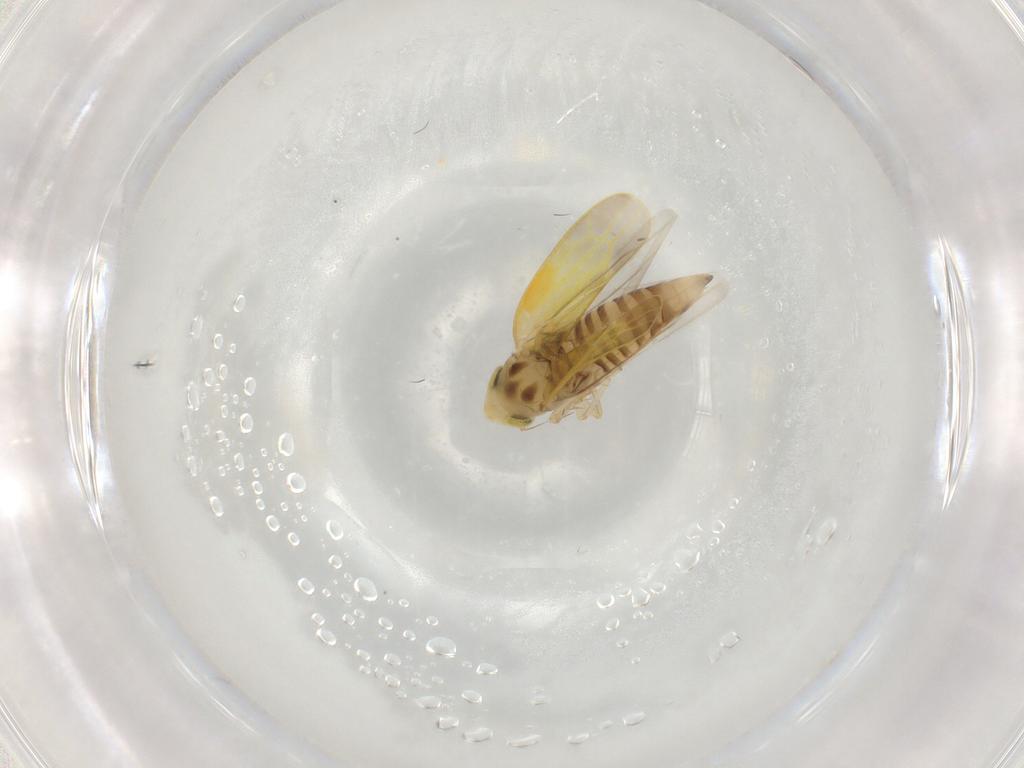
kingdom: Animalia
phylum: Arthropoda
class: Insecta
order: Hemiptera
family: Cicadellidae
